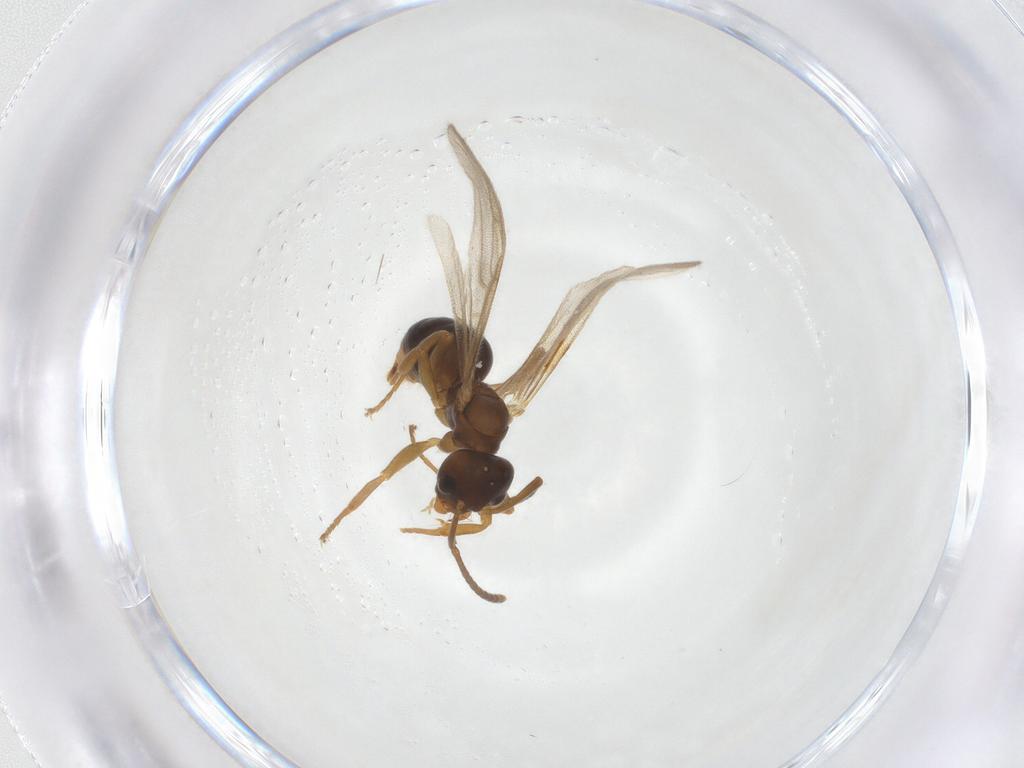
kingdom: Animalia
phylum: Arthropoda
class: Insecta
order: Hymenoptera
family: Formicidae
